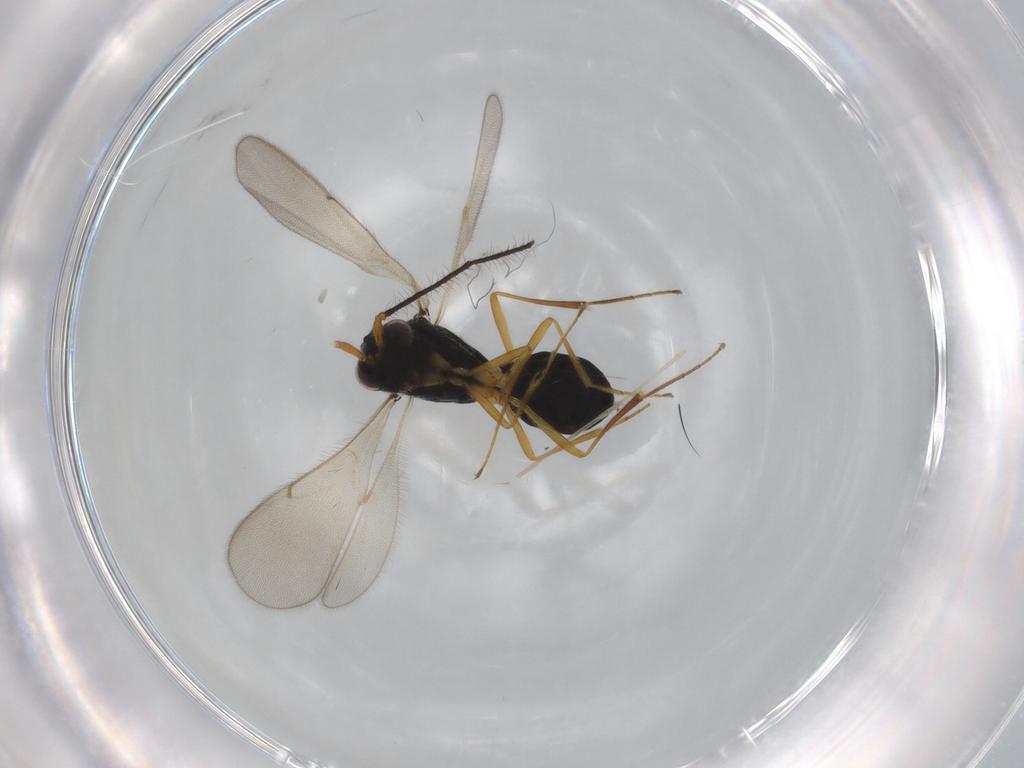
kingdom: Animalia
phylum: Arthropoda
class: Insecta
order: Hymenoptera
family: Scelionidae
